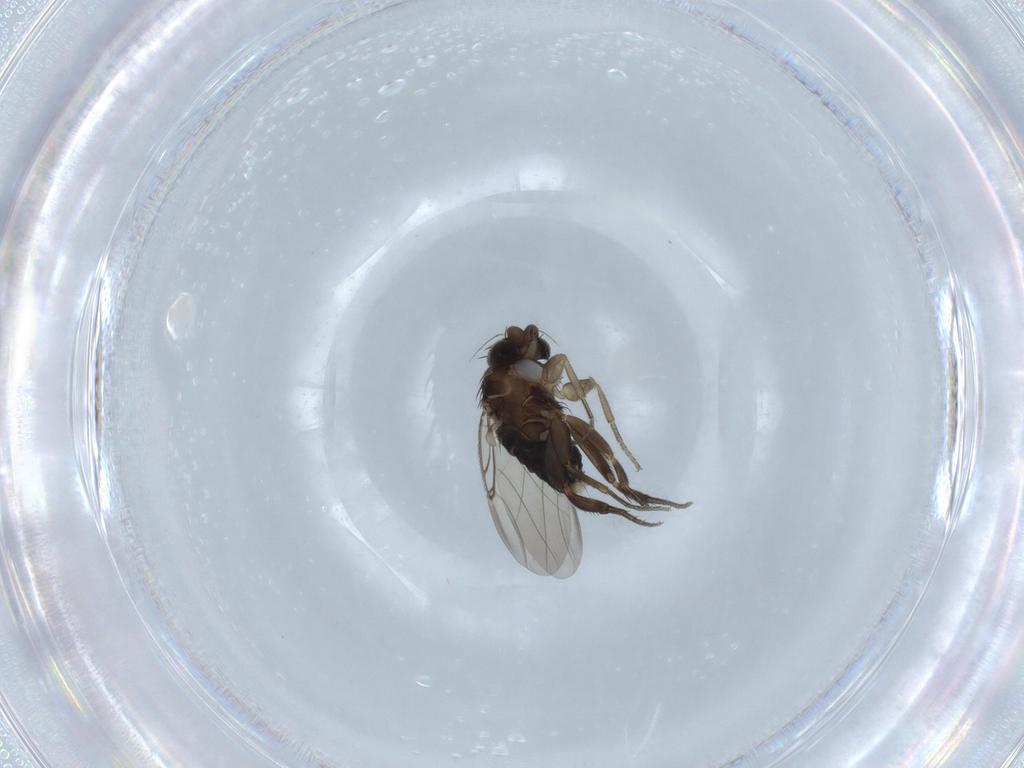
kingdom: Animalia
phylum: Arthropoda
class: Insecta
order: Diptera
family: Phoridae
